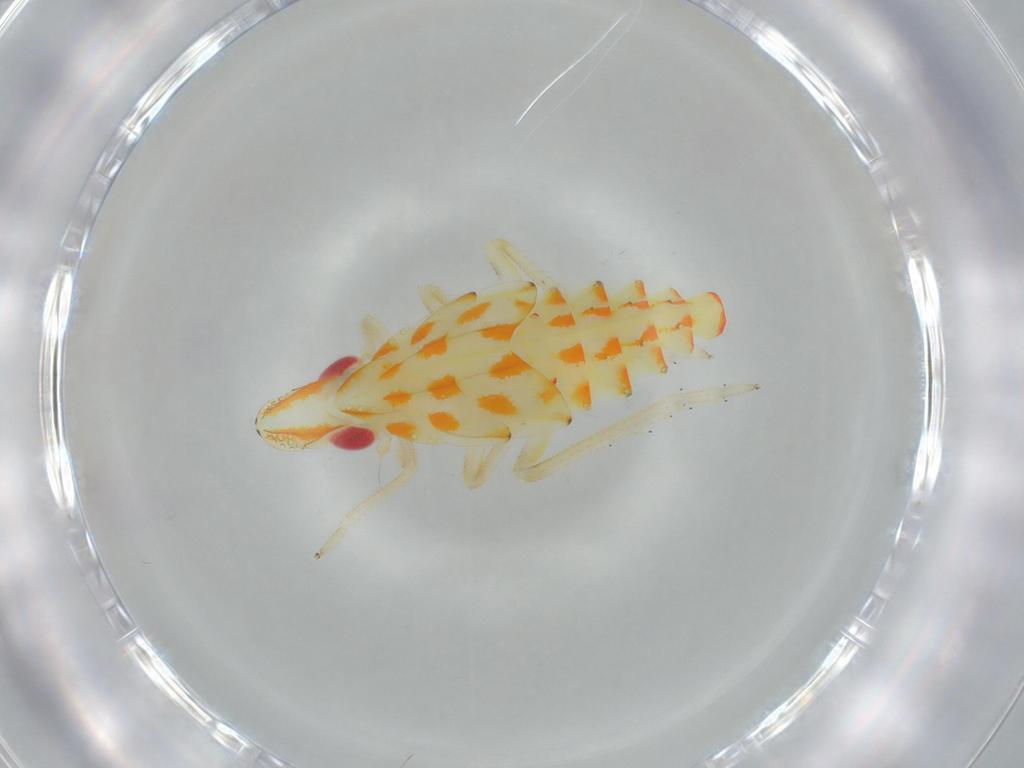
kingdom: Animalia
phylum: Arthropoda
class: Insecta
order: Hemiptera
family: Tropiduchidae
